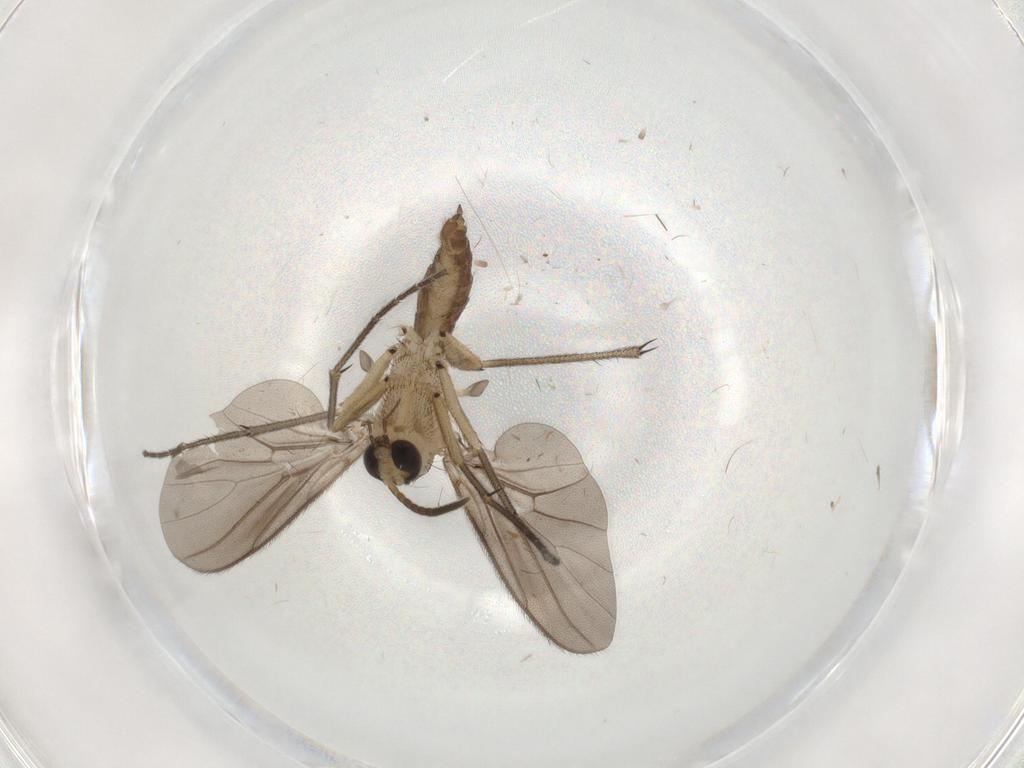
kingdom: Animalia
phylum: Arthropoda
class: Insecta
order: Diptera
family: Diadocidiidae
